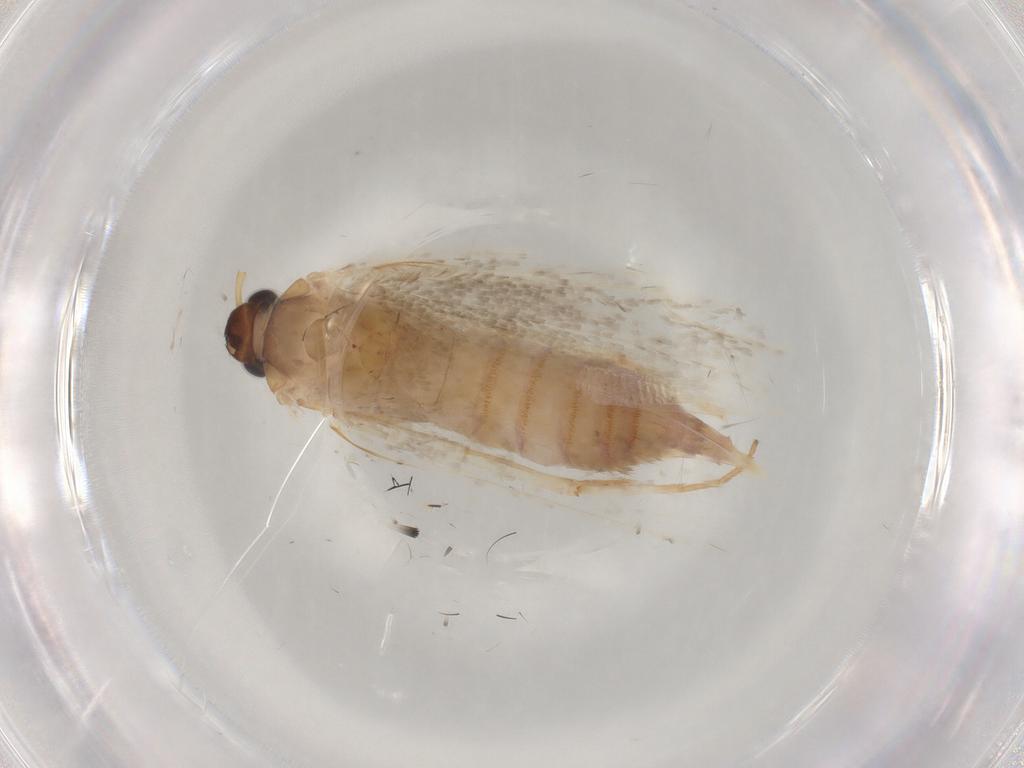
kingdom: Animalia
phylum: Arthropoda
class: Insecta
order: Lepidoptera
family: Blastobasidae
